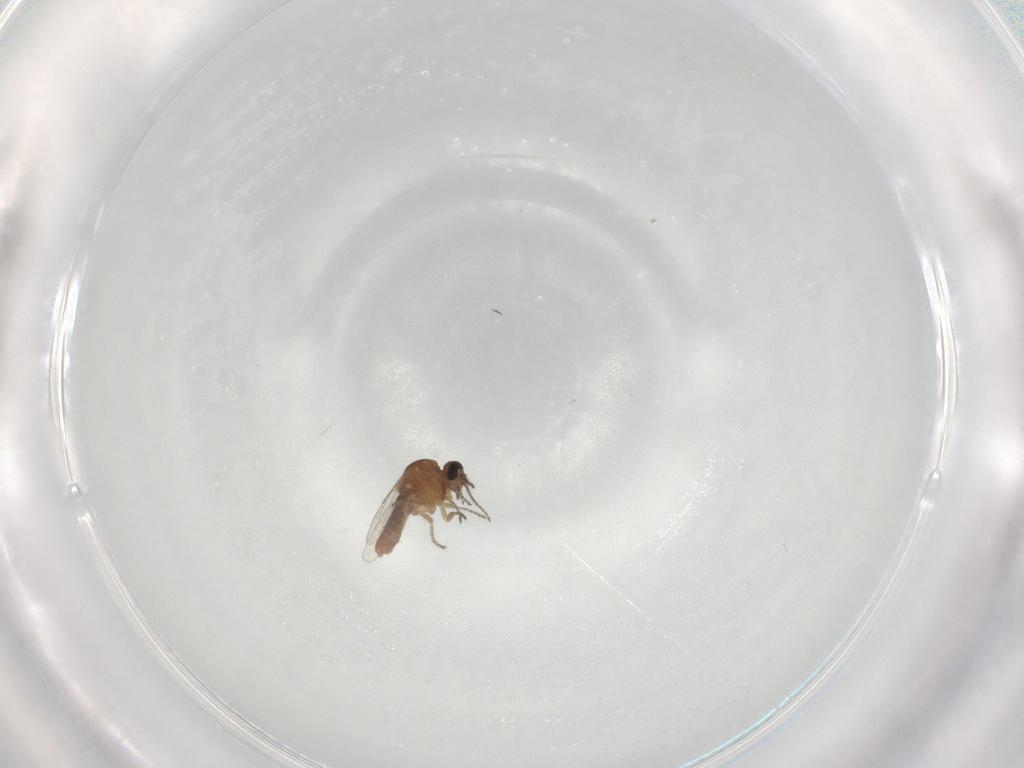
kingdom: Animalia
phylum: Arthropoda
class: Insecta
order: Diptera
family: Ceratopogonidae
